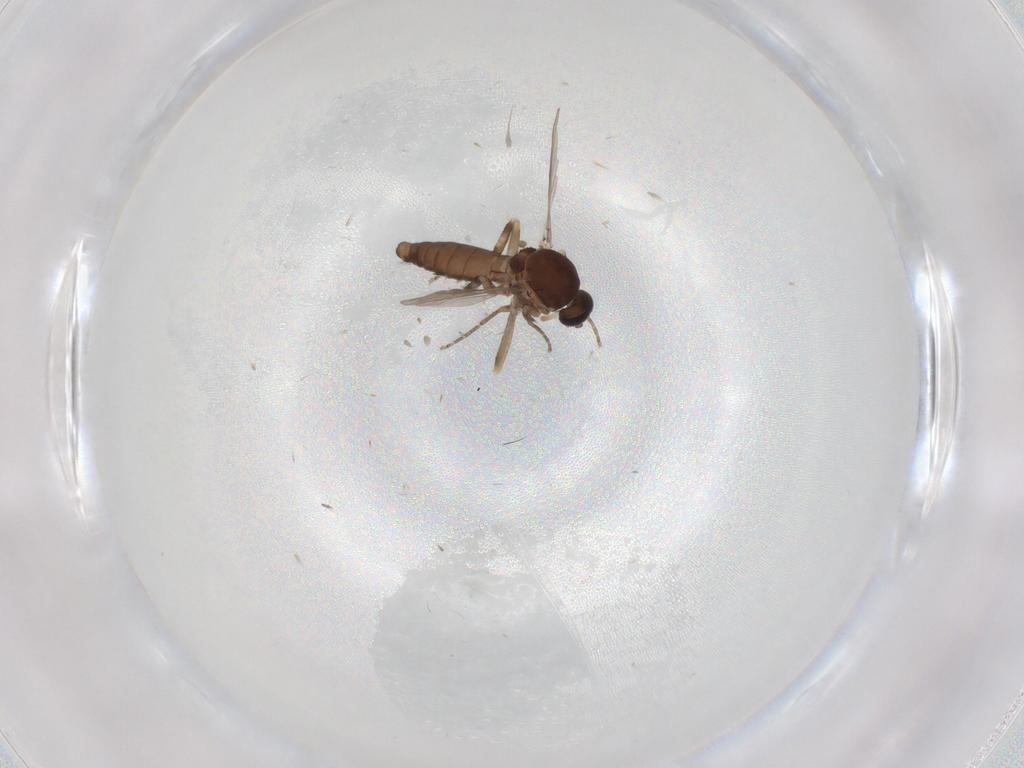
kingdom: Animalia
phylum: Arthropoda
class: Insecta
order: Diptera
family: Ceratopogonidae
